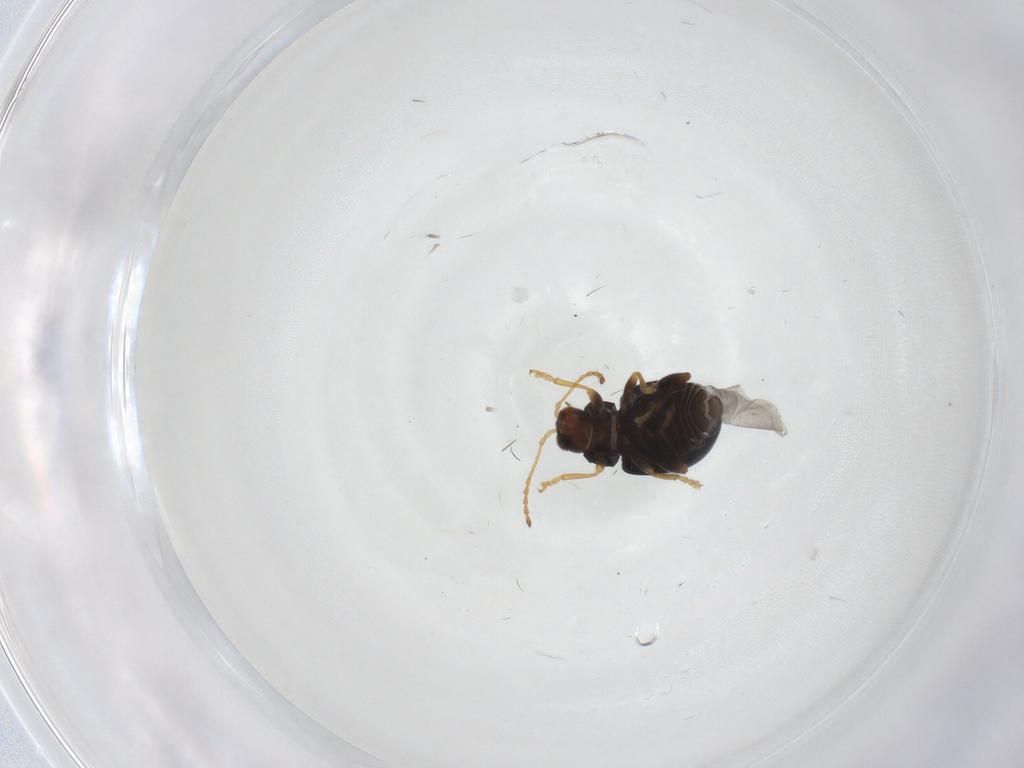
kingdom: Animalia
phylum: Arthropoda
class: Insecta
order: Coleoptera
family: Chrysomelidae
